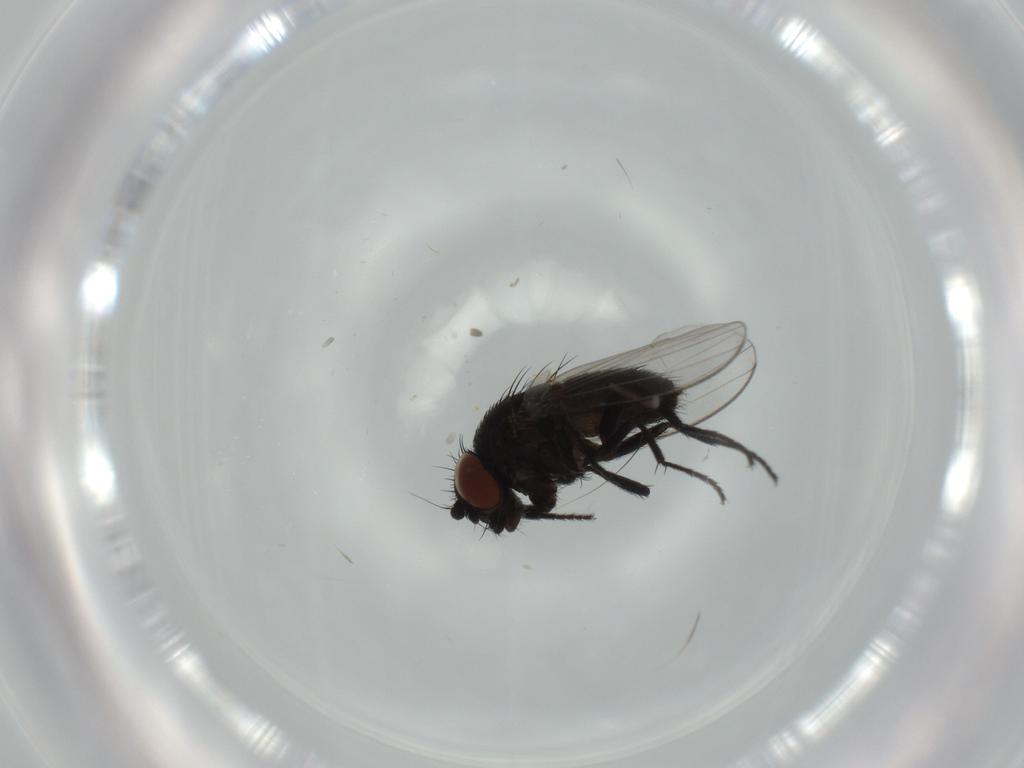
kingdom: Animalia
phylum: Arthropoda
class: Insecta
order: Diptera
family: Milichiidae
